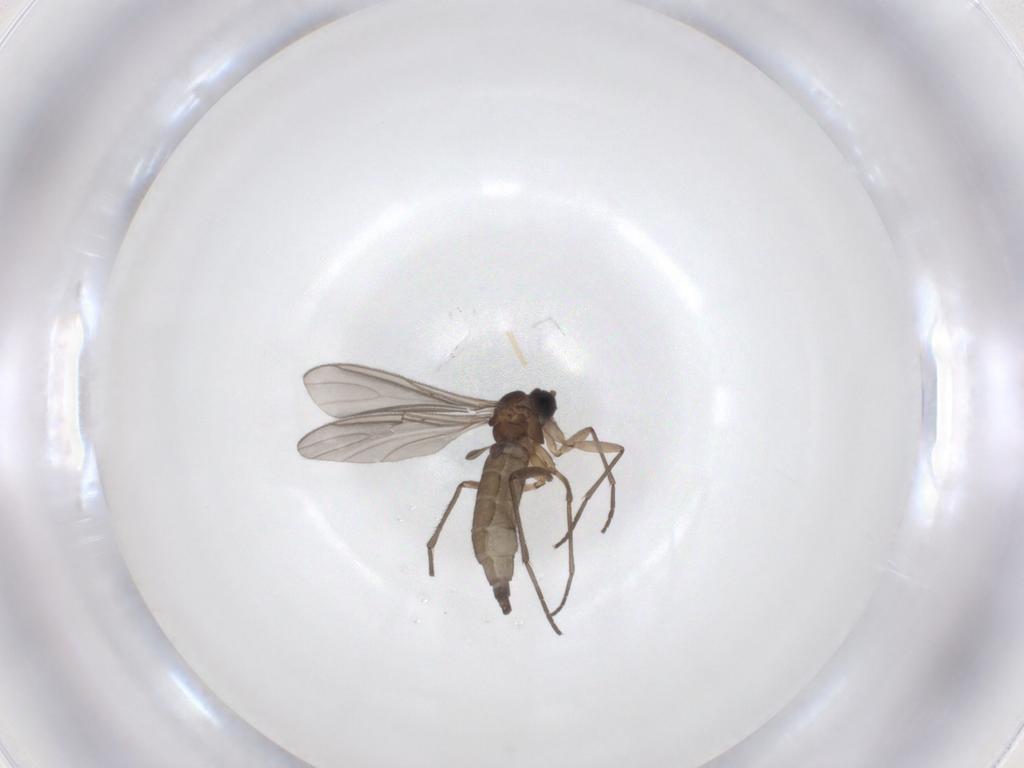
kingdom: Animalia
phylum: Arthropoda
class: Insecta
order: Diptera
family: Sciaridae
